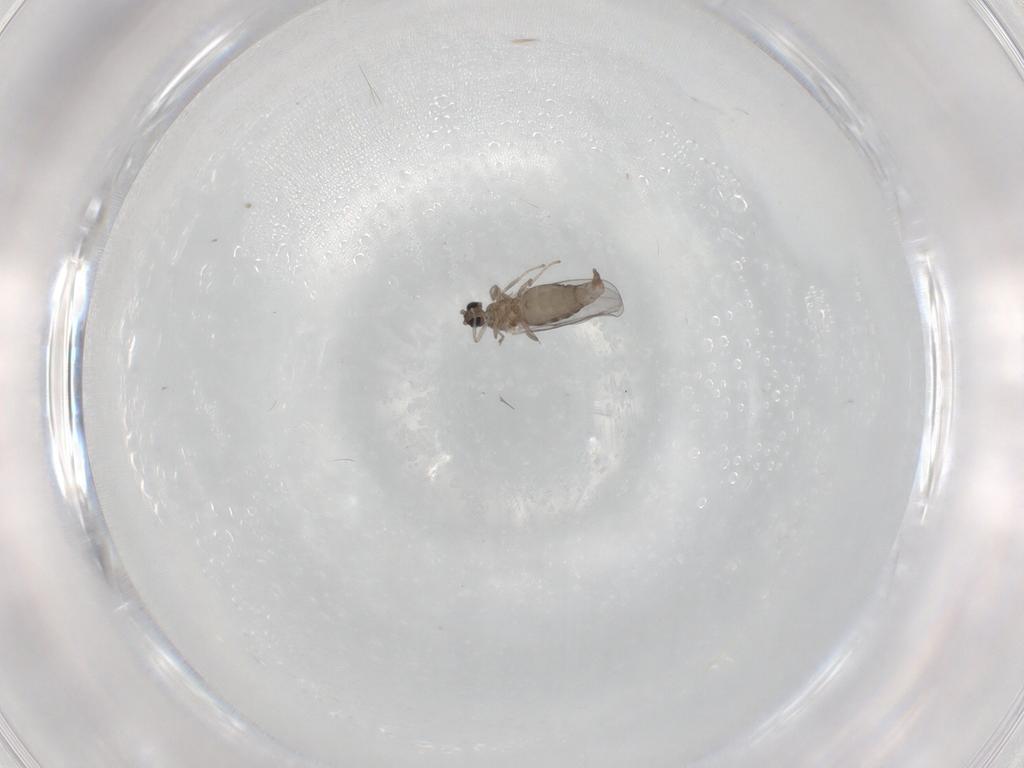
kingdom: Animalia
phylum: Arthropoda
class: Insecta
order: Diptera
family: Cecidomyiidae
